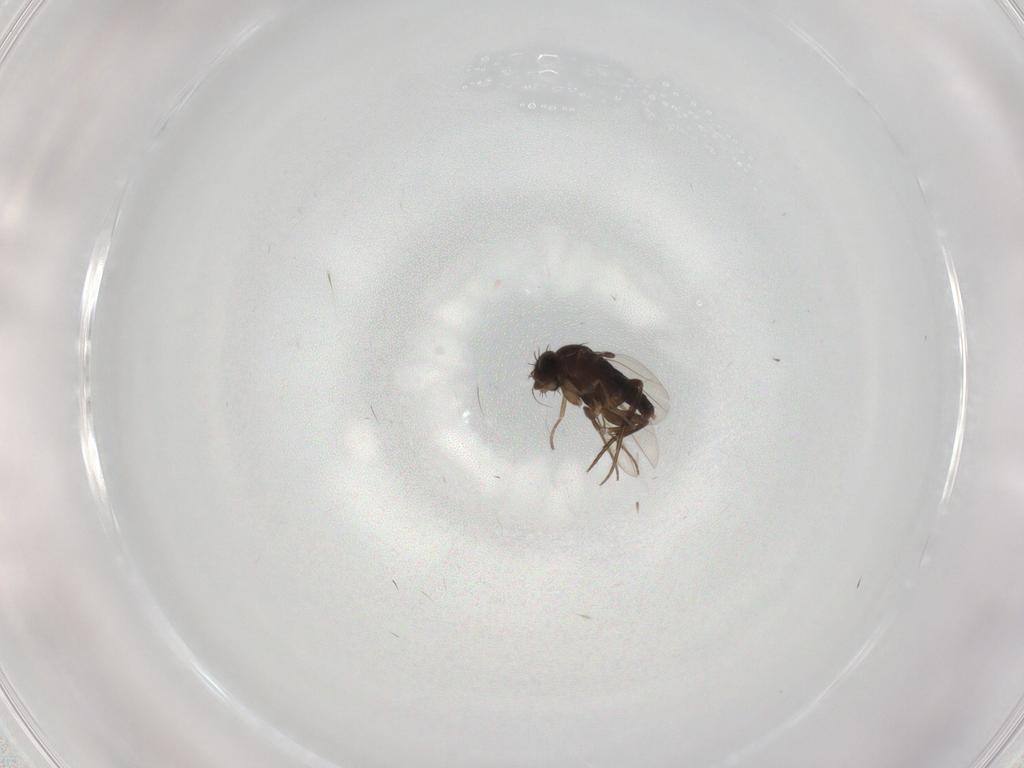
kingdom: Animalia
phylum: Arthropoda
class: Insecta
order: Diptera
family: Phoridae
